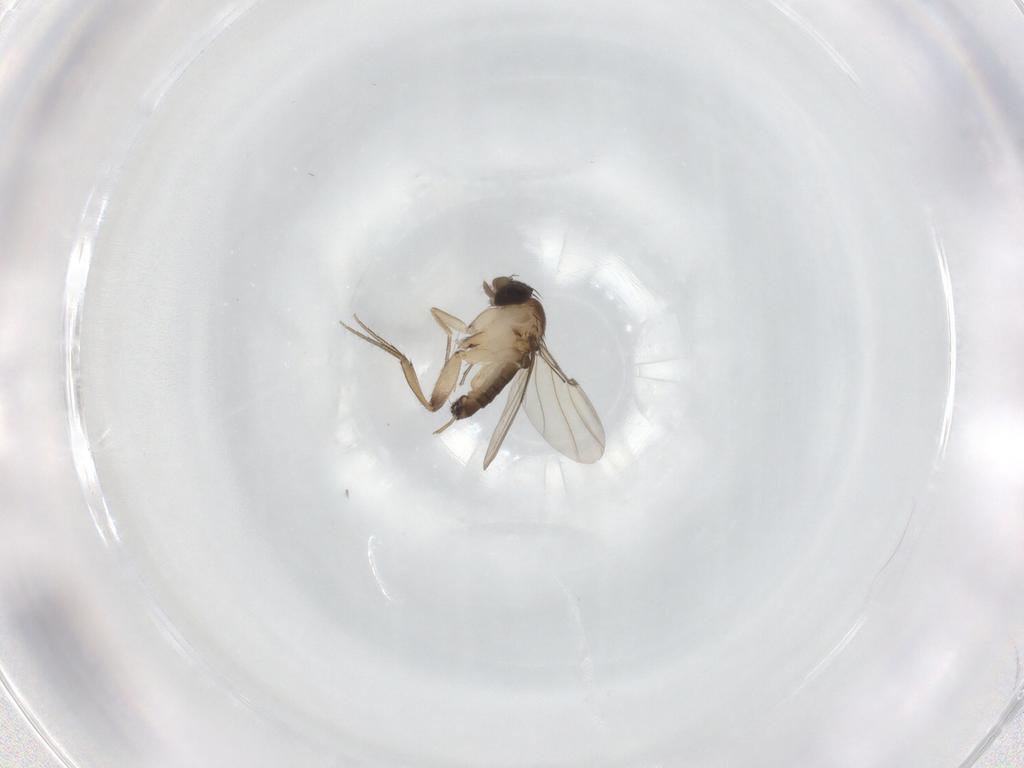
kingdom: Animalia
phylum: Arthropoda
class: Insecta
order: Diptera
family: Phoridae
